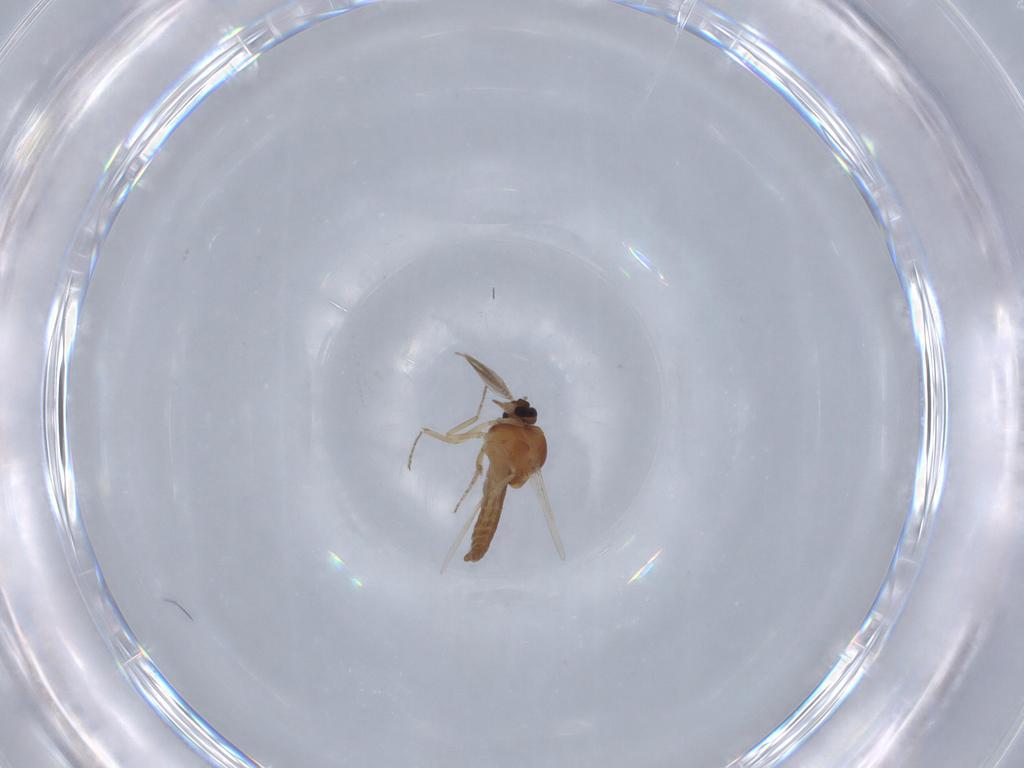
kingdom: Animalia
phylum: Arthropoda
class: Insecta
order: Diptera
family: Ceratopogonidae
